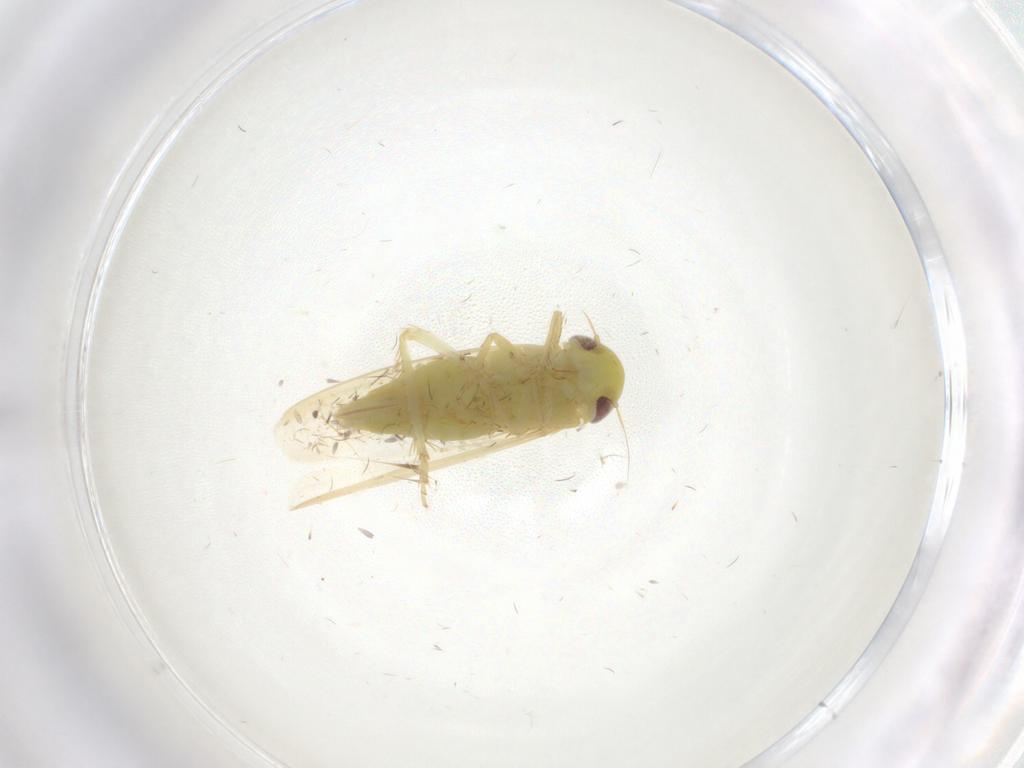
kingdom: Animalia
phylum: Arthropoda
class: Insecta
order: Hemiptera
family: Cicadellidae
